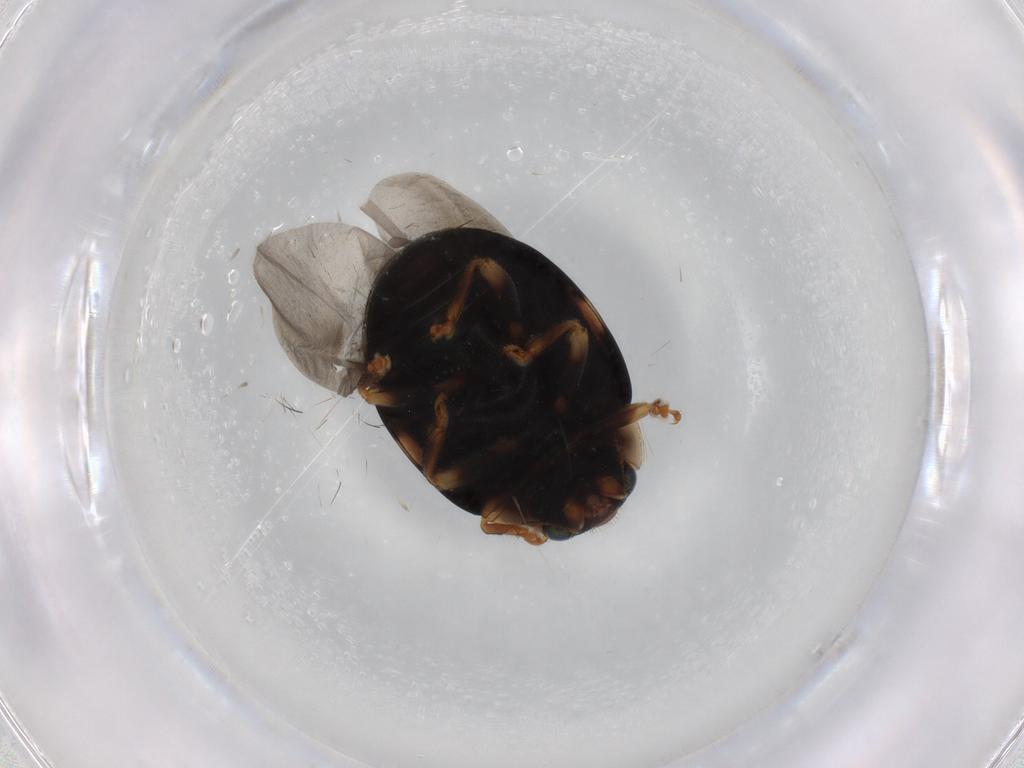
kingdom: Animalia
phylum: Arthropoda
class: Insecta
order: Coleoptera
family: Coccinellidae
